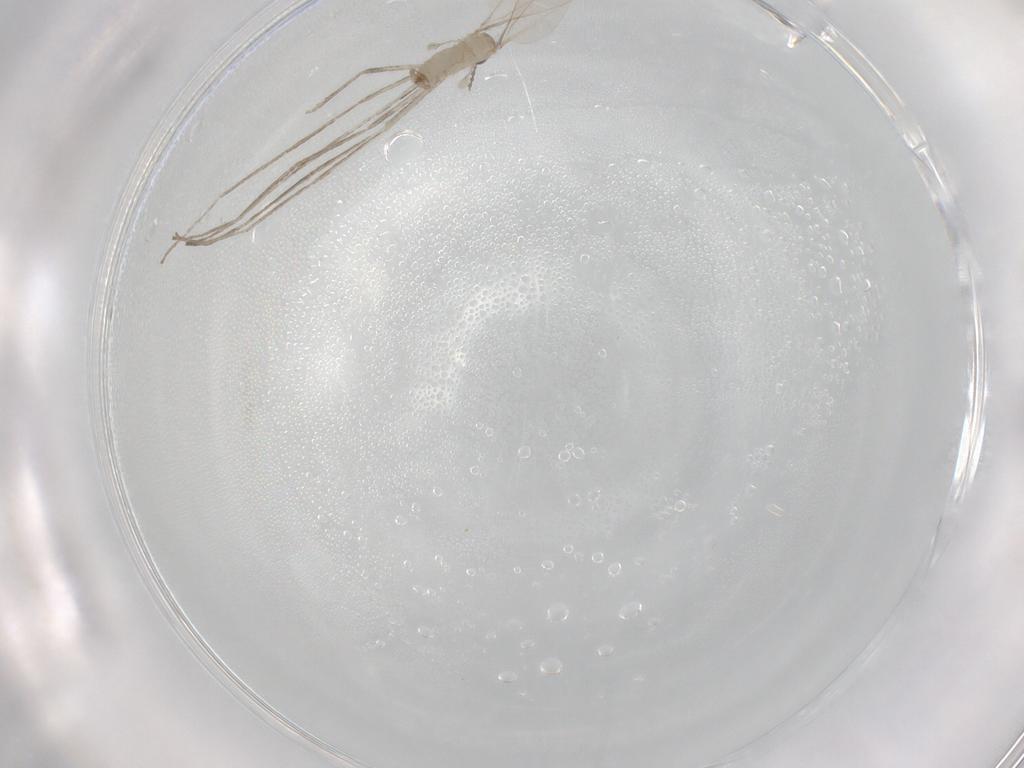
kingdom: Animalia
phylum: Arthropoda
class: Insecta
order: Diptera
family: Cecidomyiidae
